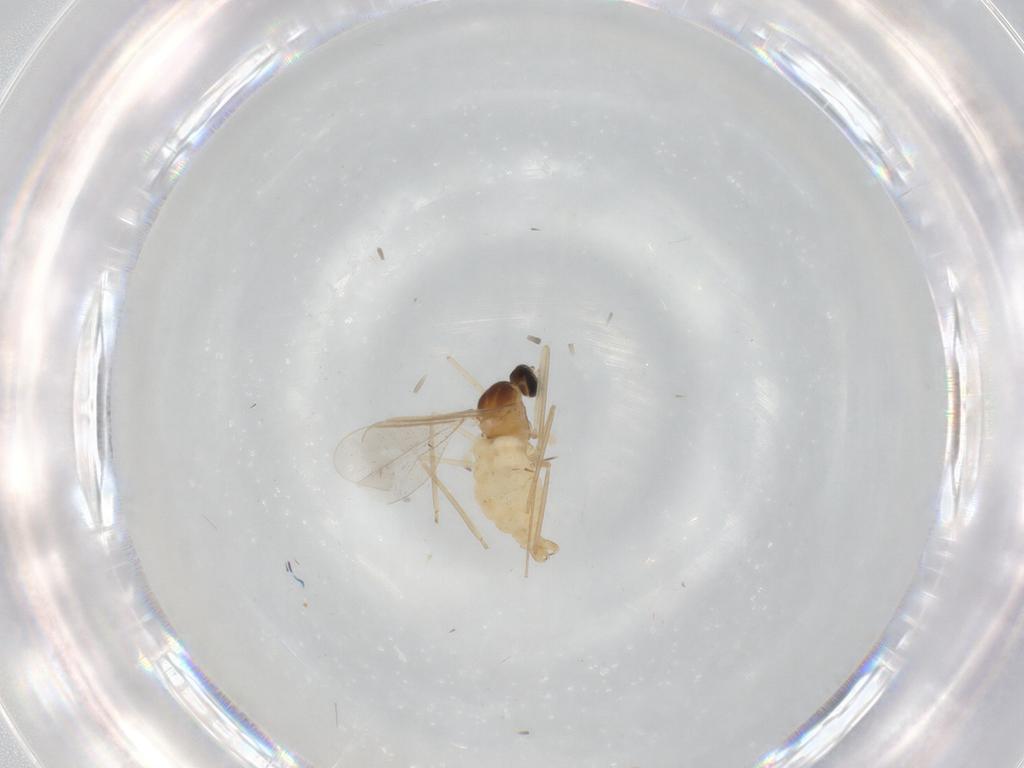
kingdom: Animalia
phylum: Arthropoda
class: Insecta
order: Diptera
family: Cecidomyiidae
